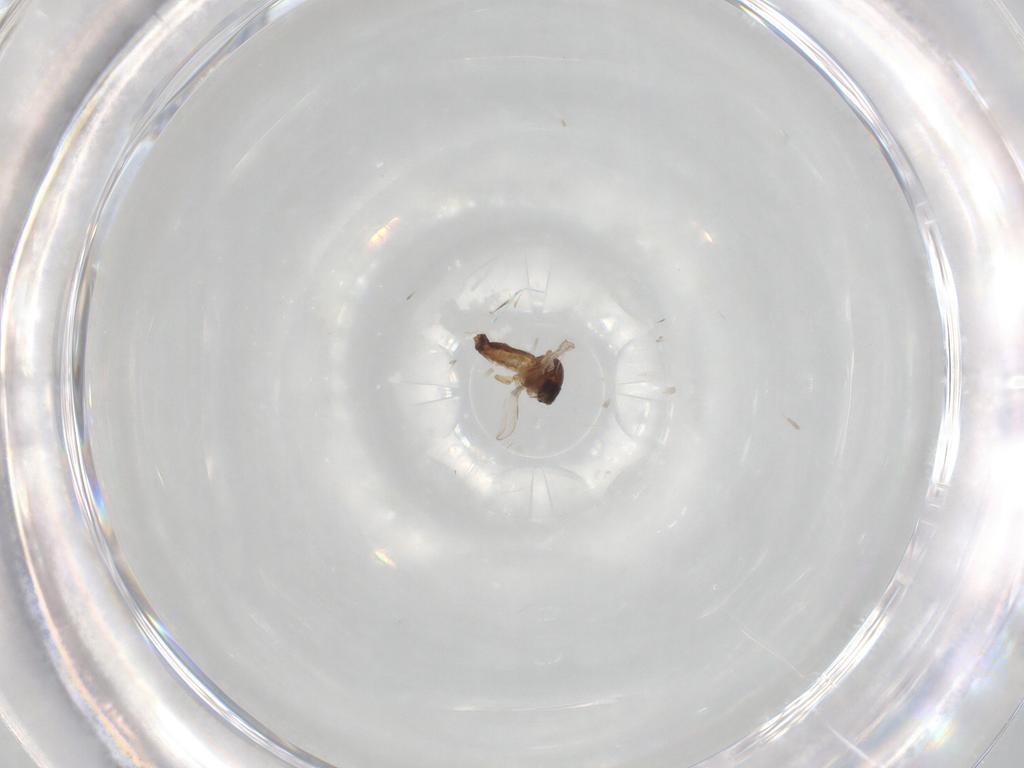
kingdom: Animalia
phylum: Arthropoda
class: Insecta
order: Diptera
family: Ceratopogonidae
